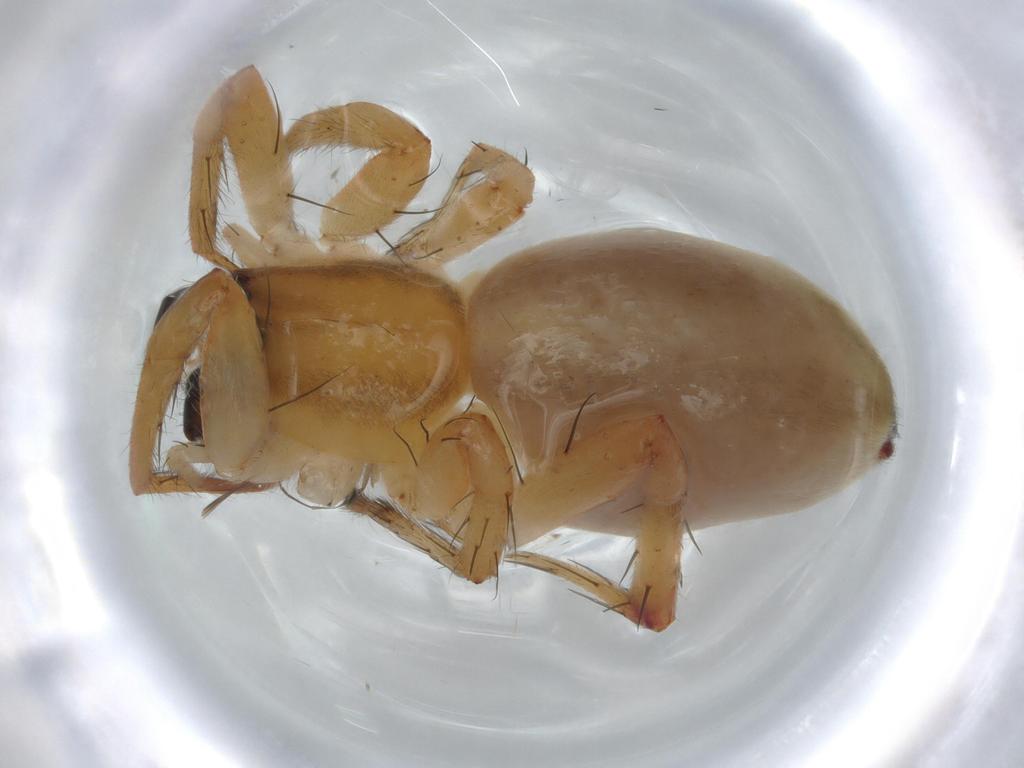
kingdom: Animalia
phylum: Arthropoda
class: Arachnida
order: Araneae
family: Anyphaenidae
